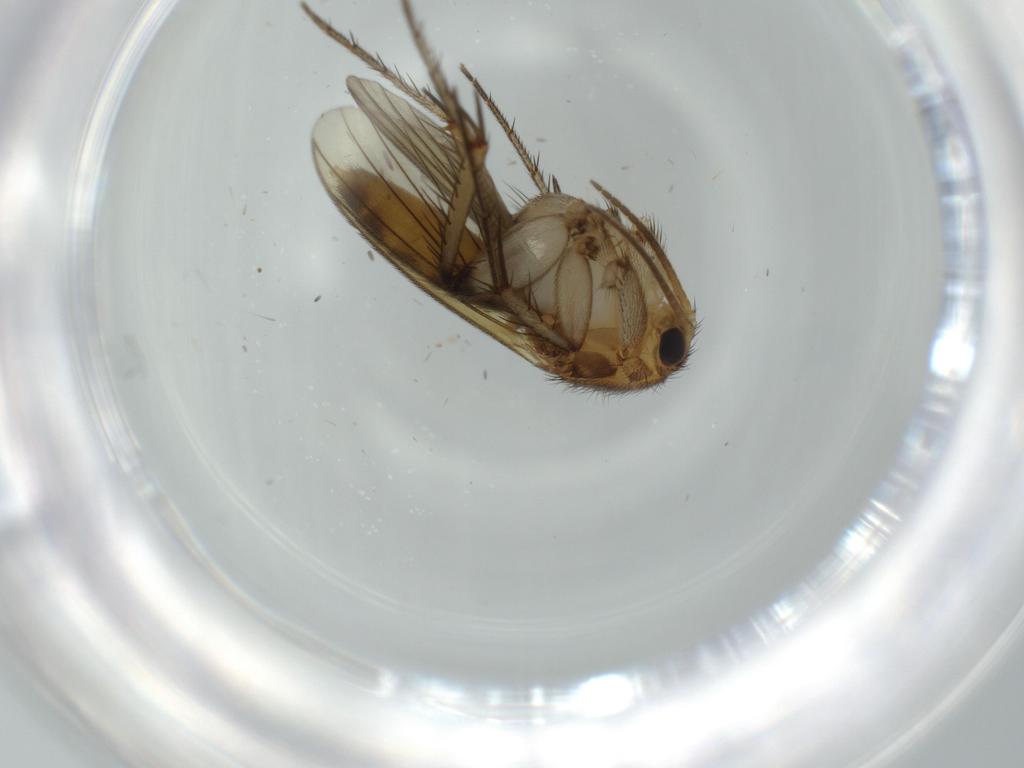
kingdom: Animalia
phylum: Arthropoda
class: Insecta
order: Diptera
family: Mycetophilidae
